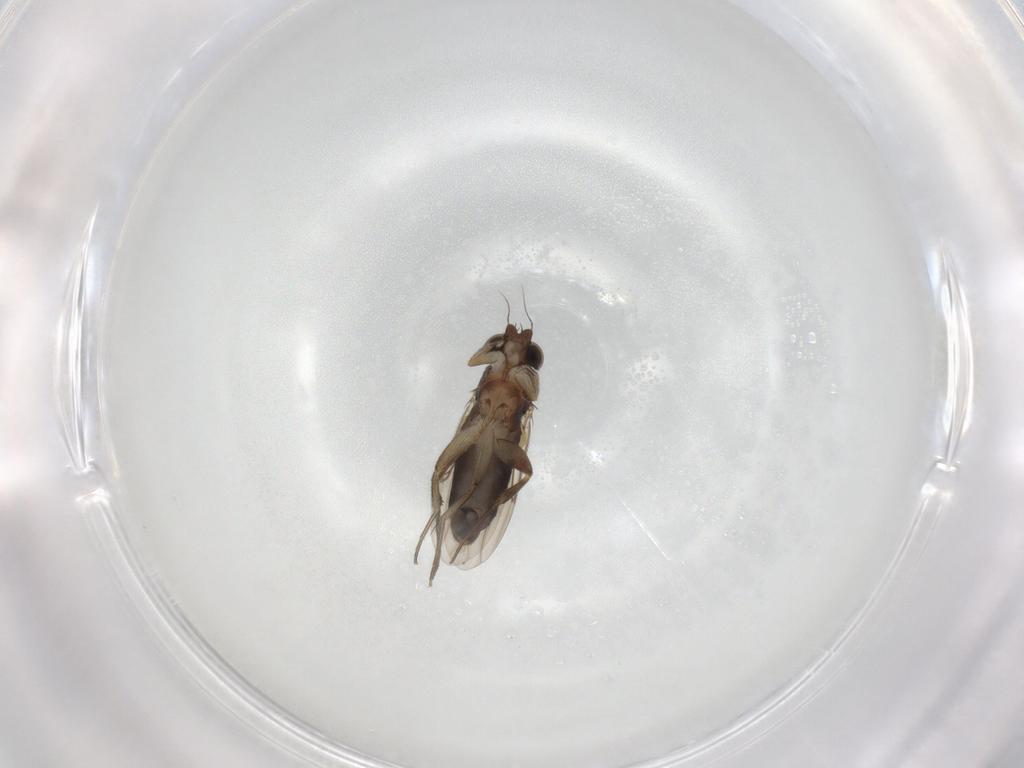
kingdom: Animalia
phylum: Arthropoda
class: Insecta
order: Diptera
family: Phoridae
